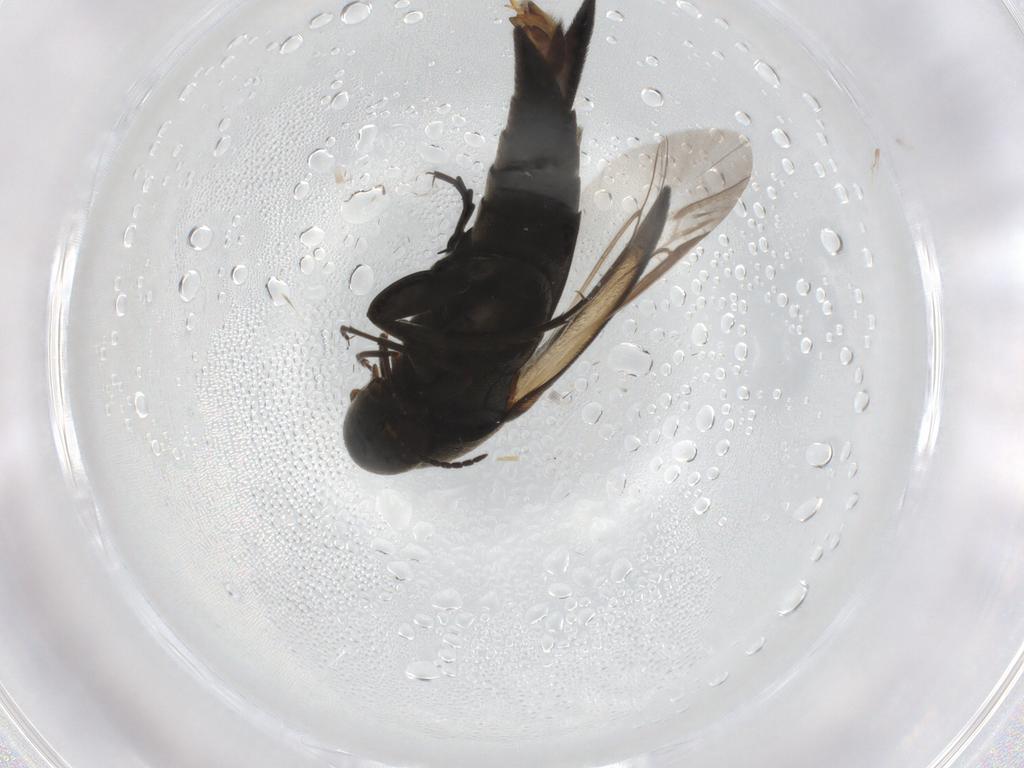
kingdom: Animalia
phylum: Arthropoda
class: Insecta
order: Coleoptera
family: Mordellidae
